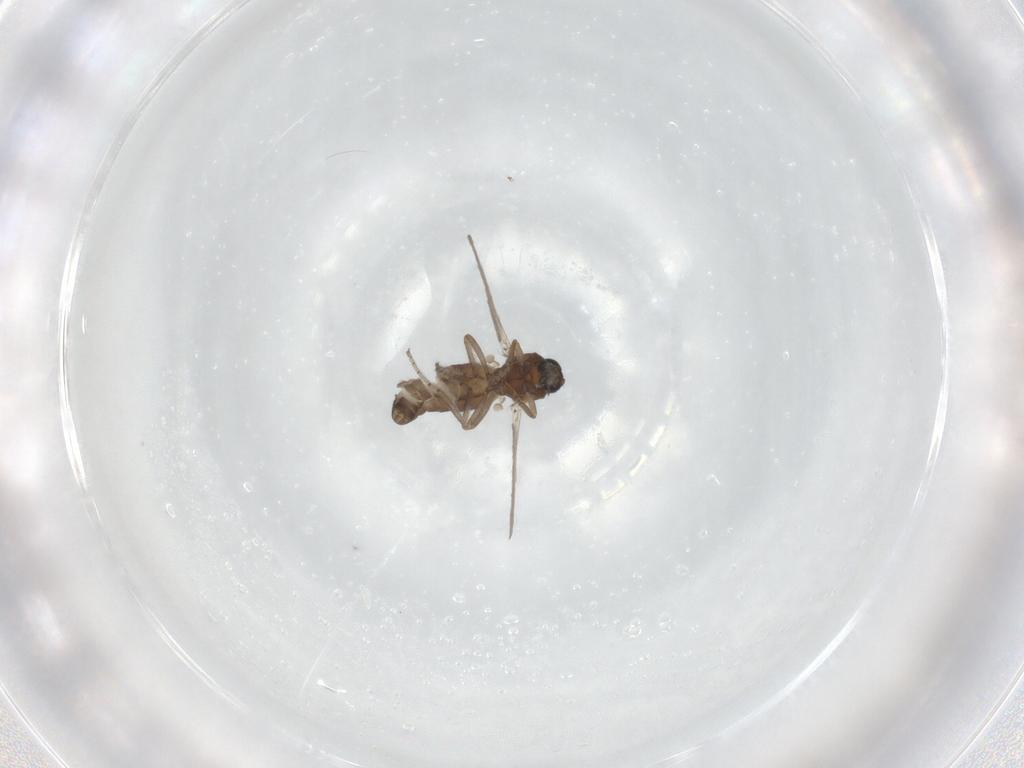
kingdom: Animalia
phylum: Arthropoda
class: Insecta
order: Diptera
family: Ceratopogonidae
